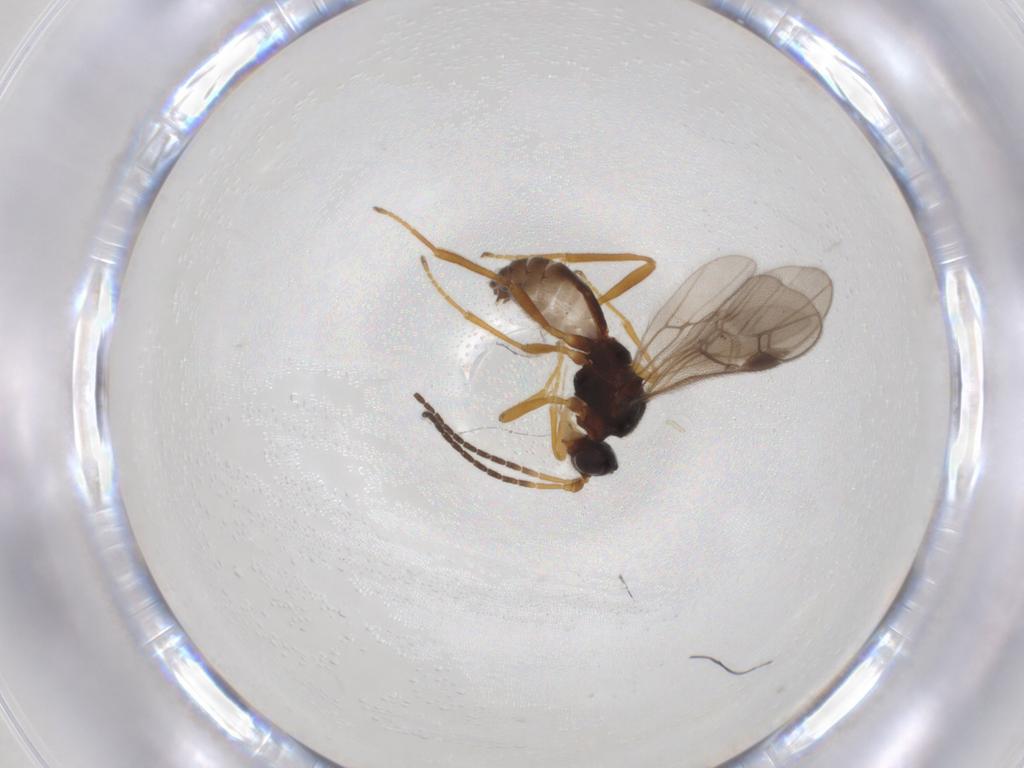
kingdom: Animalia
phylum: Arthropoda
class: Insecta
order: Hymenoptera
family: Braconidae
